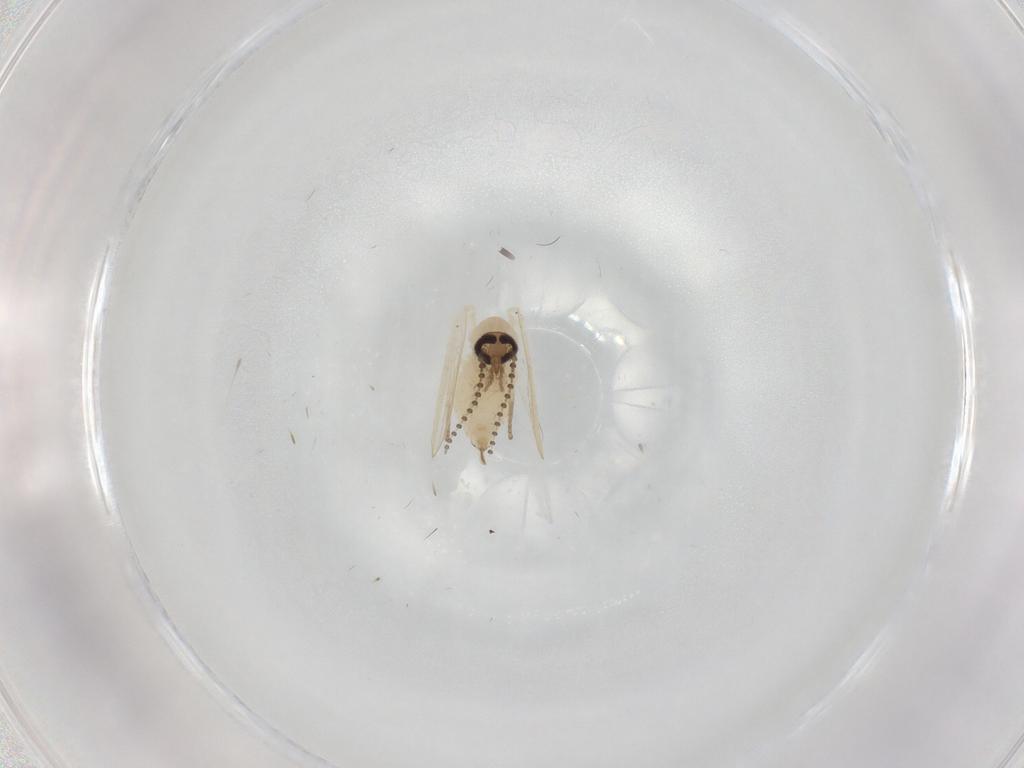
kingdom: Animalia
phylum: Arthropoda
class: Insecta
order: Diptera
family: Psychodidae
